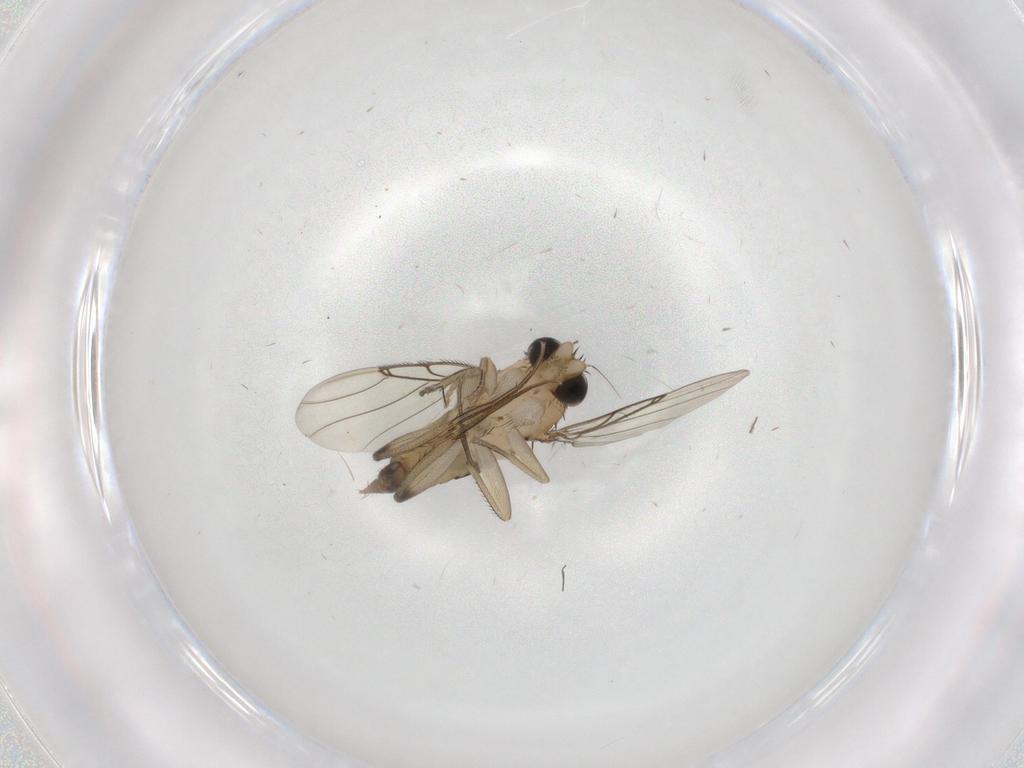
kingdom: Animalia
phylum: Arthropoda
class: Insecta
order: Diptera
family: Phoridae
